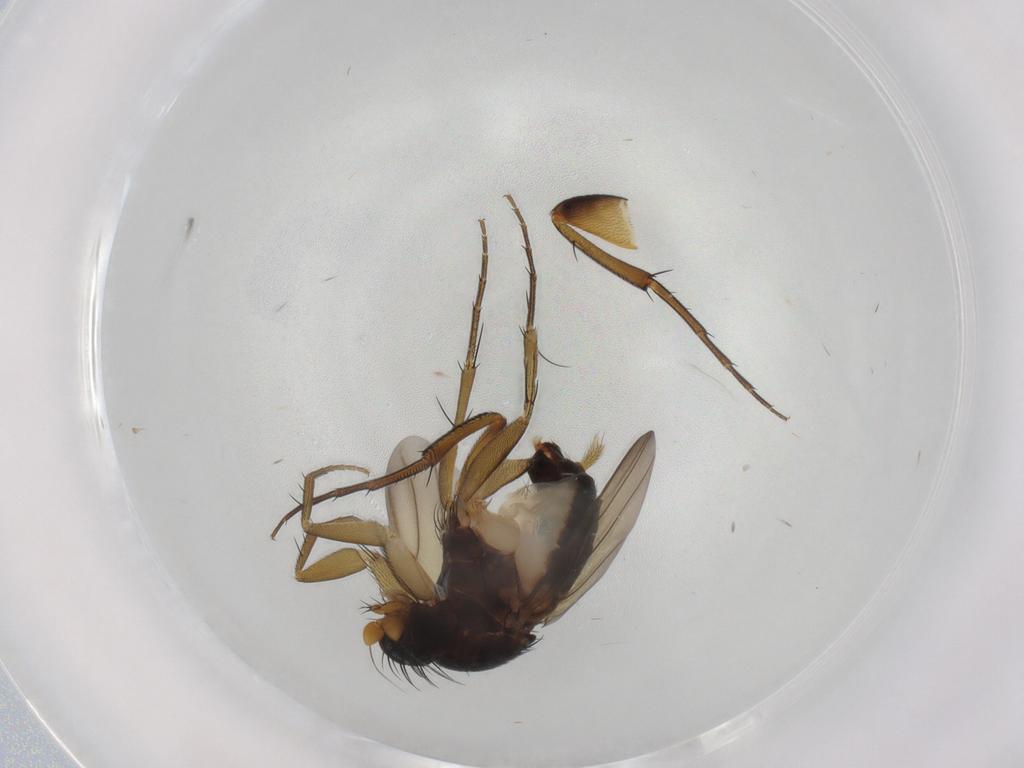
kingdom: Animalia
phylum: Arthropoda
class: Insecta
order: Diptera
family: Phoridae
